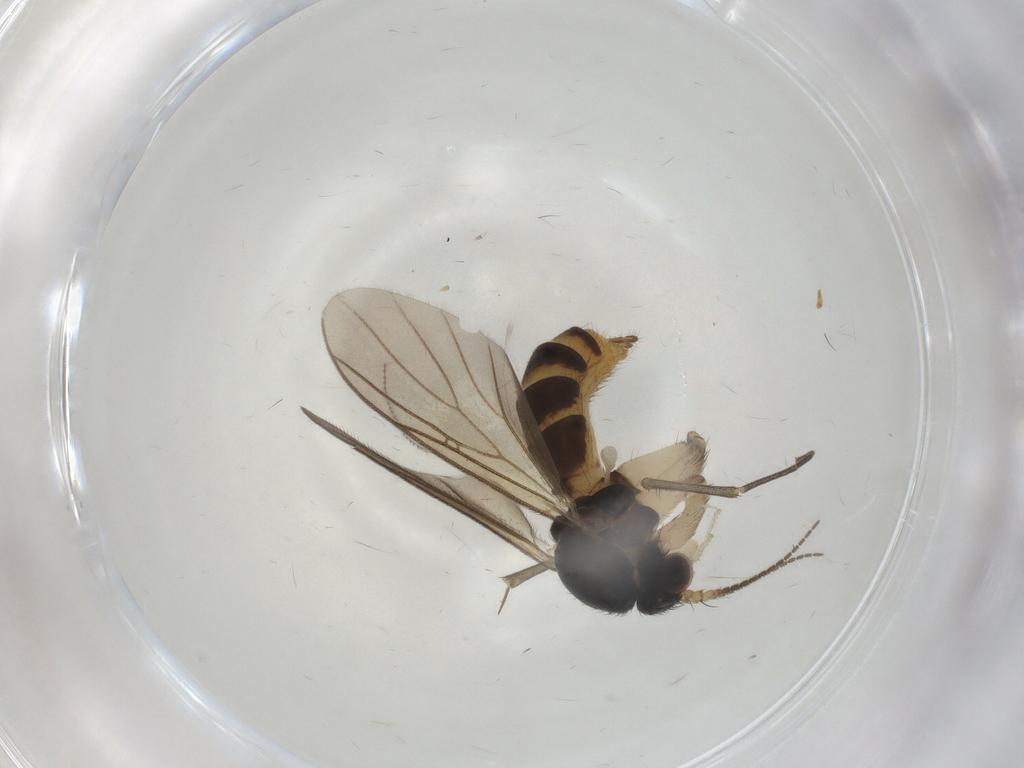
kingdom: Animalia
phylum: Arthropoda
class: Insecta
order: Diptera
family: Mycetophilidae
